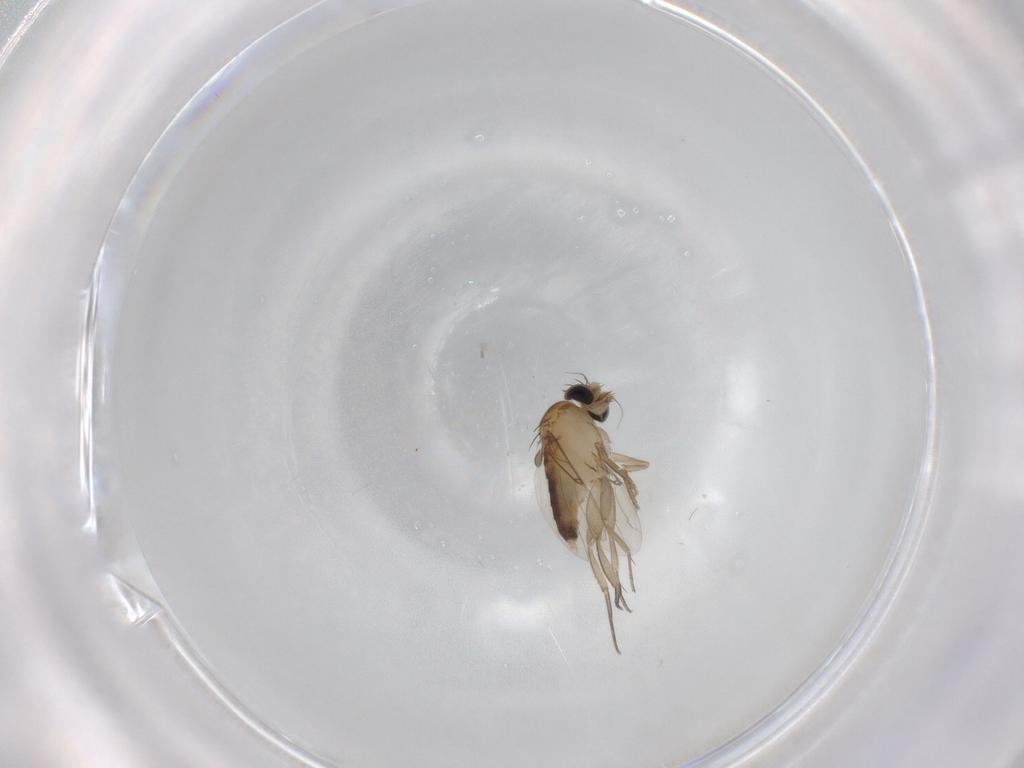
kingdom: Animalia
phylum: Arthropoda
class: Insecta
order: Diptera
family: Phoridae
